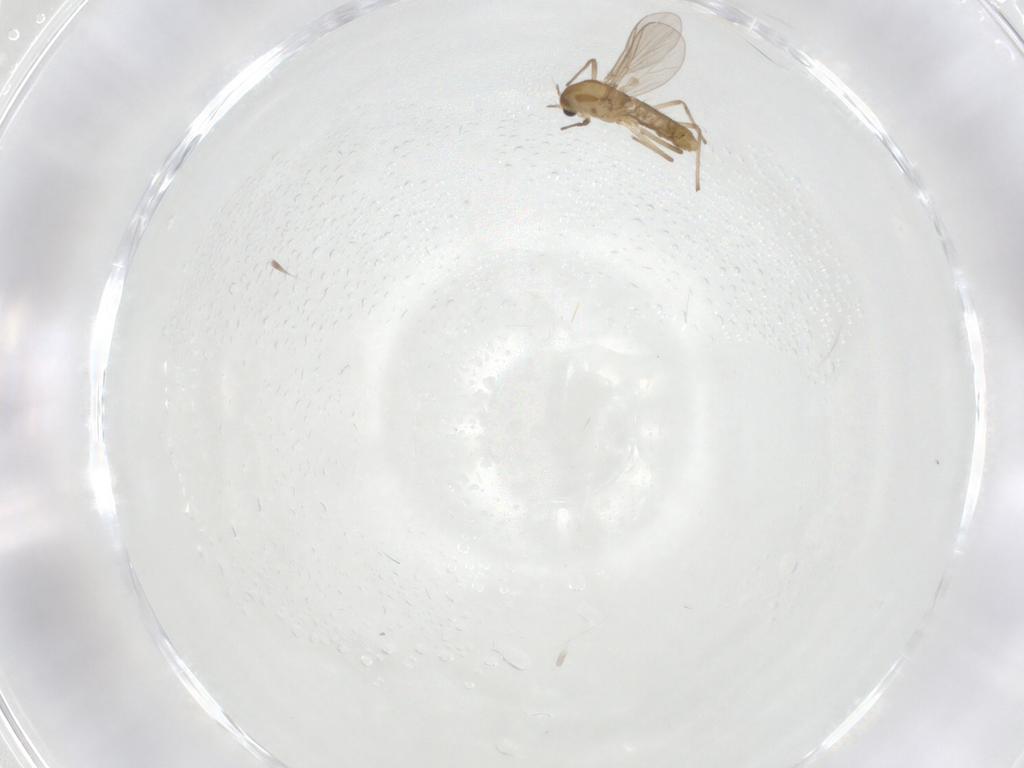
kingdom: Animalia
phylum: Arthropoda
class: Insecta
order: Diptera
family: Chironomidae
